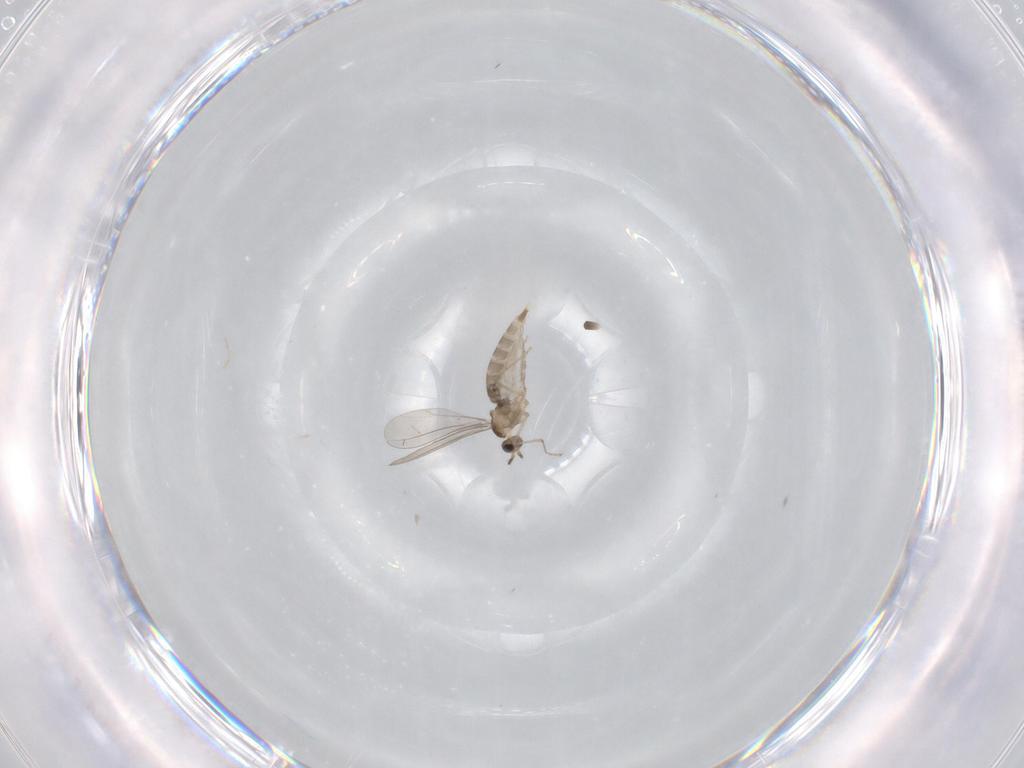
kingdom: Animalia
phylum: Arthropoda
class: Insecta
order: Diptera
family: Chironomidae
